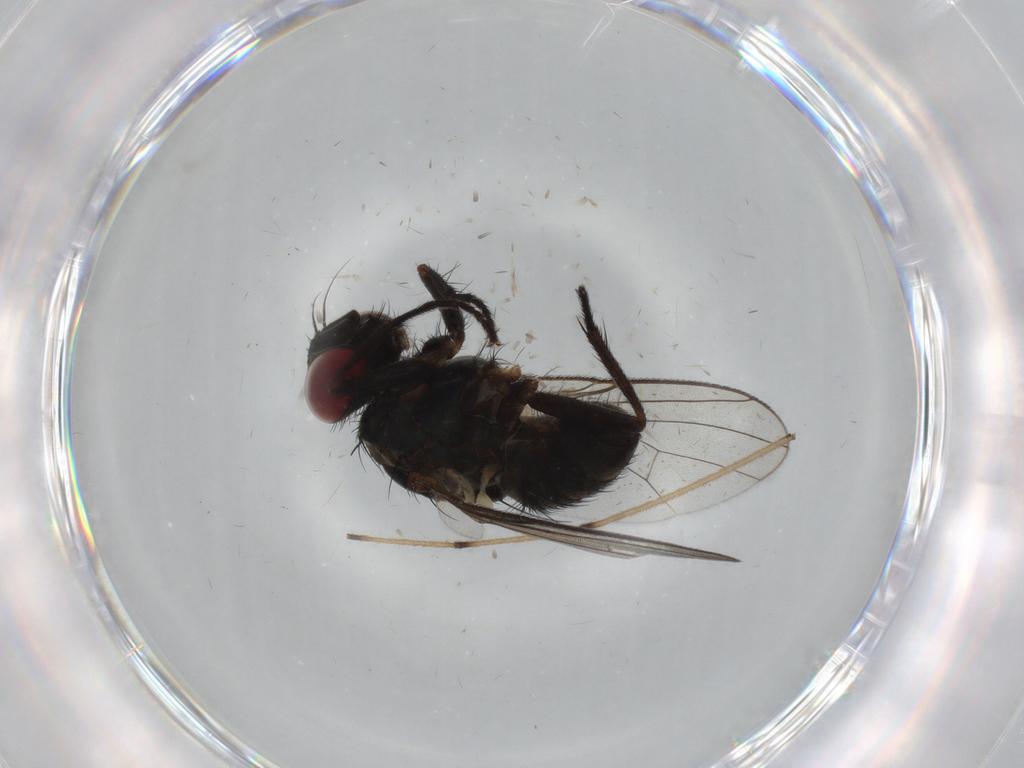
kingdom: Animalia
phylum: Arthropoda
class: Insecta
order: Diptera
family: Muscidae
